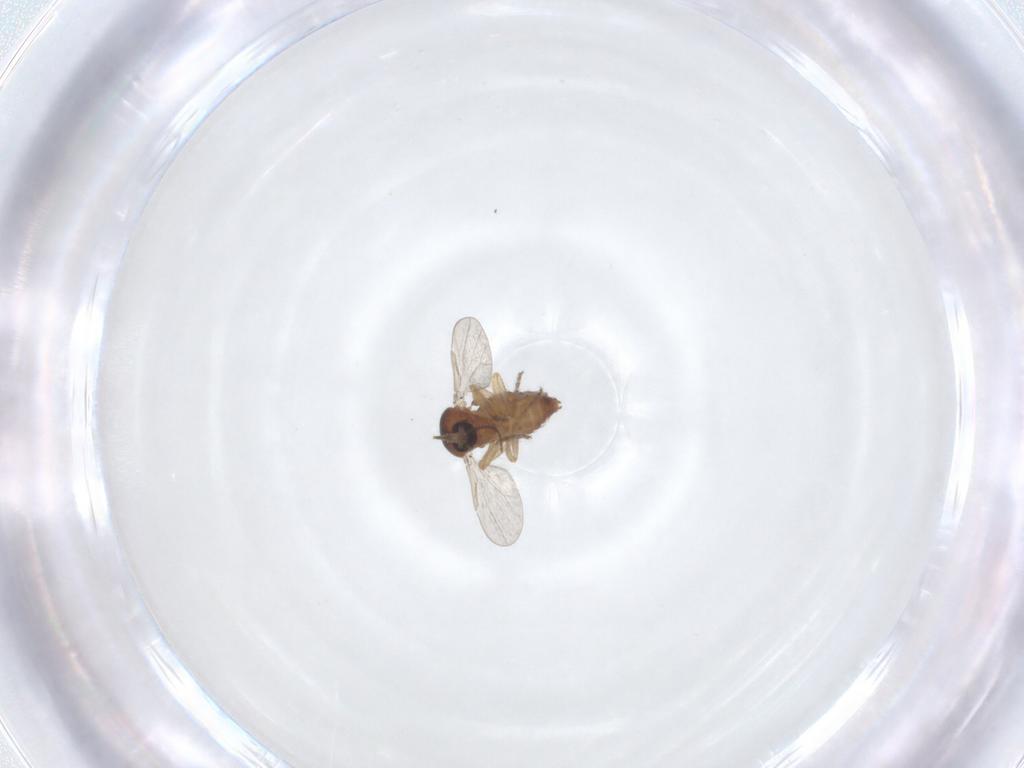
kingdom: Animalia
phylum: Arthropoda
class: Insecta
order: Diptera
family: Ceratopogonidae
